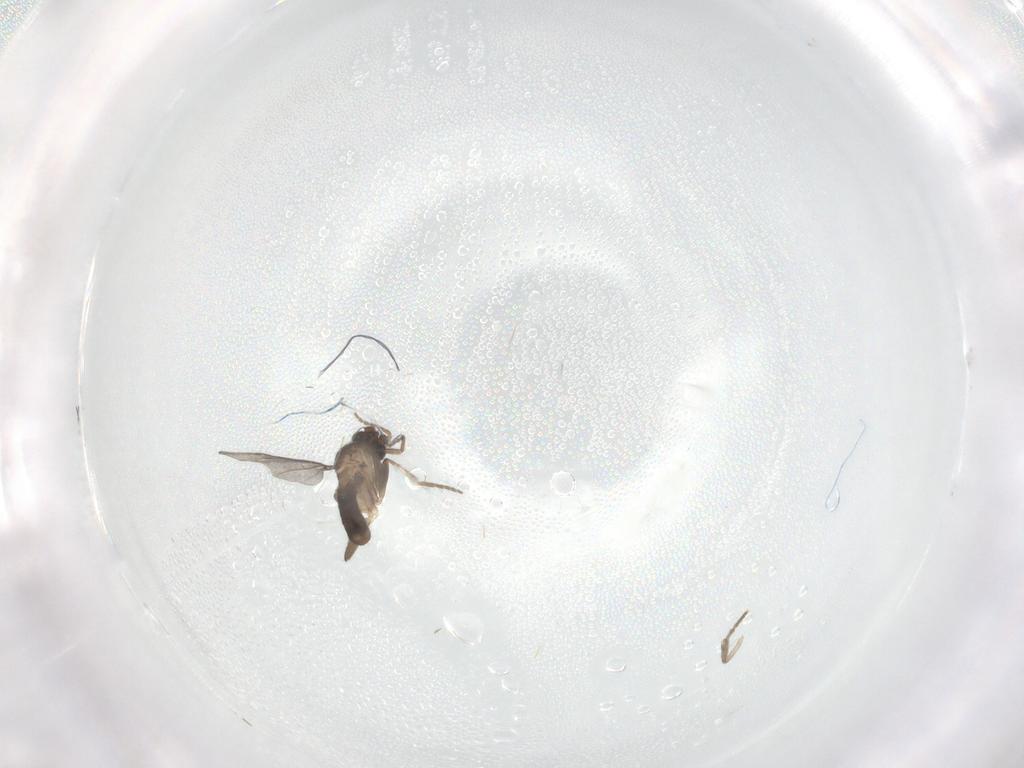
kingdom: Animalia
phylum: Arthropoda
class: Insecta
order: Diptera
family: Phoridae
